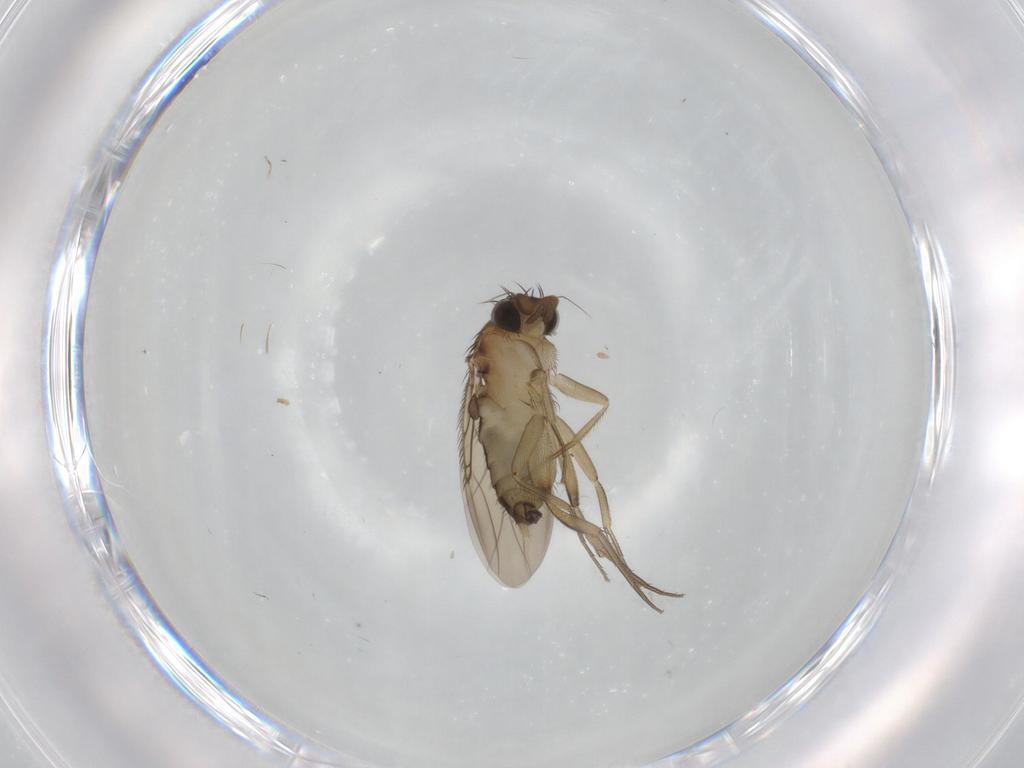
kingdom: Animalia
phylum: Arthropoda
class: Insecta
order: Diptera
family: Phoridae
